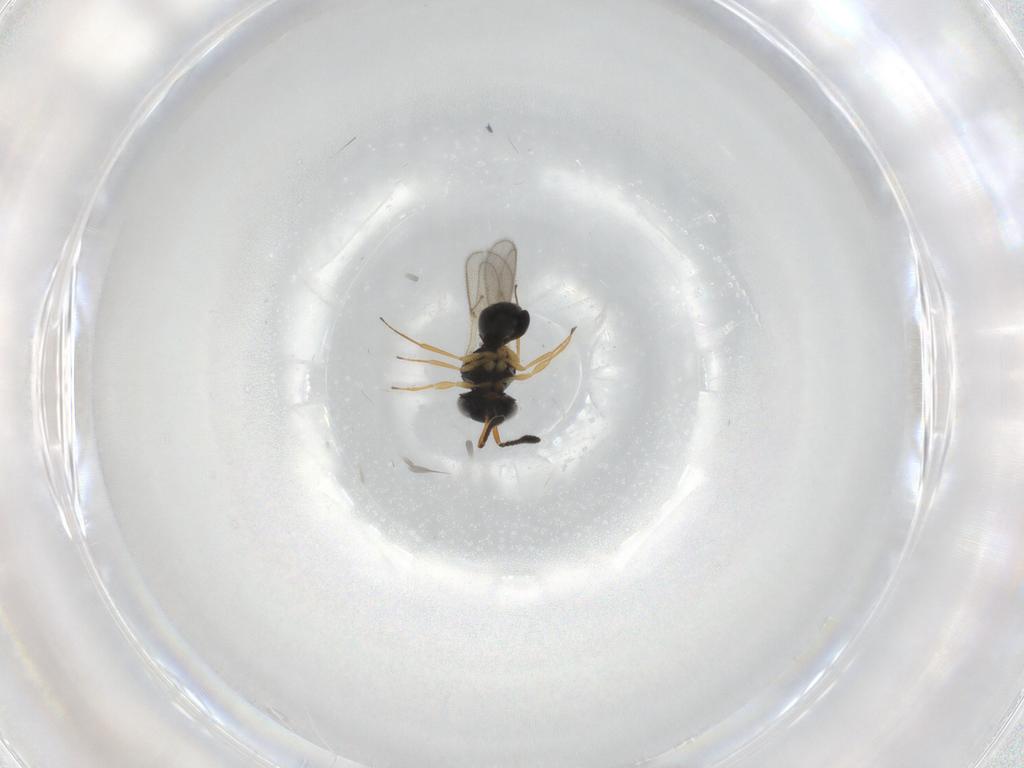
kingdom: Animalia
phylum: Arthropoda
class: Insecta
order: Hymenoptera
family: Scelionidae
